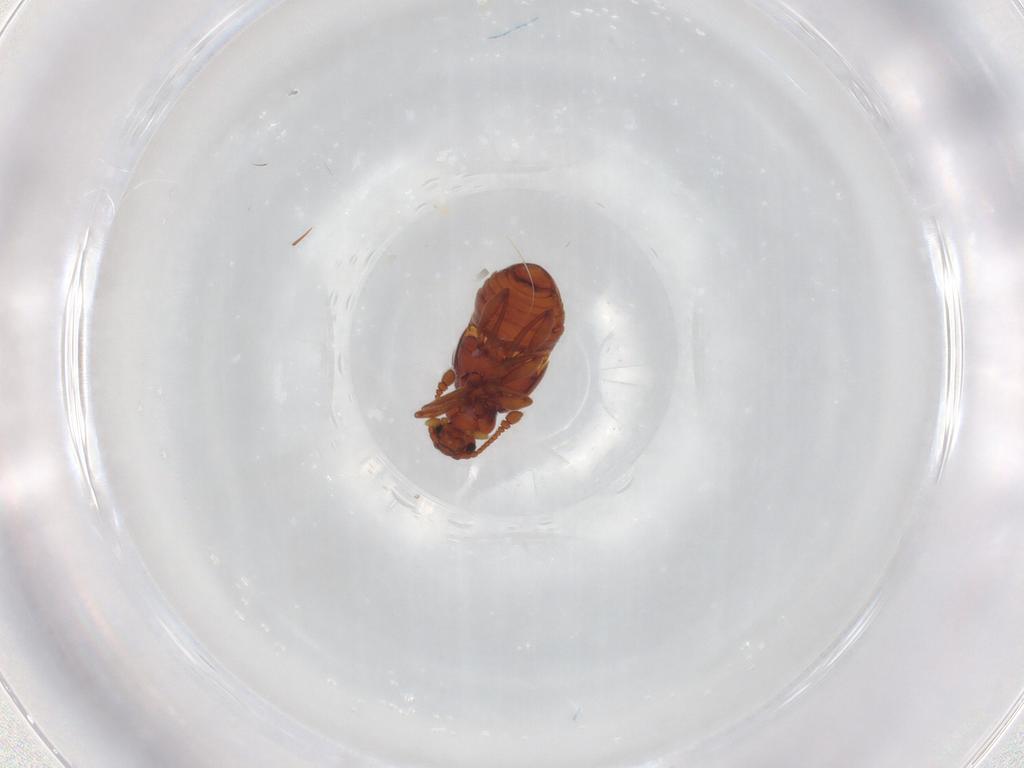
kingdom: Animalia
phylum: Arthropoda
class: Insecta
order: Coleoptera
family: Staphylinidae
